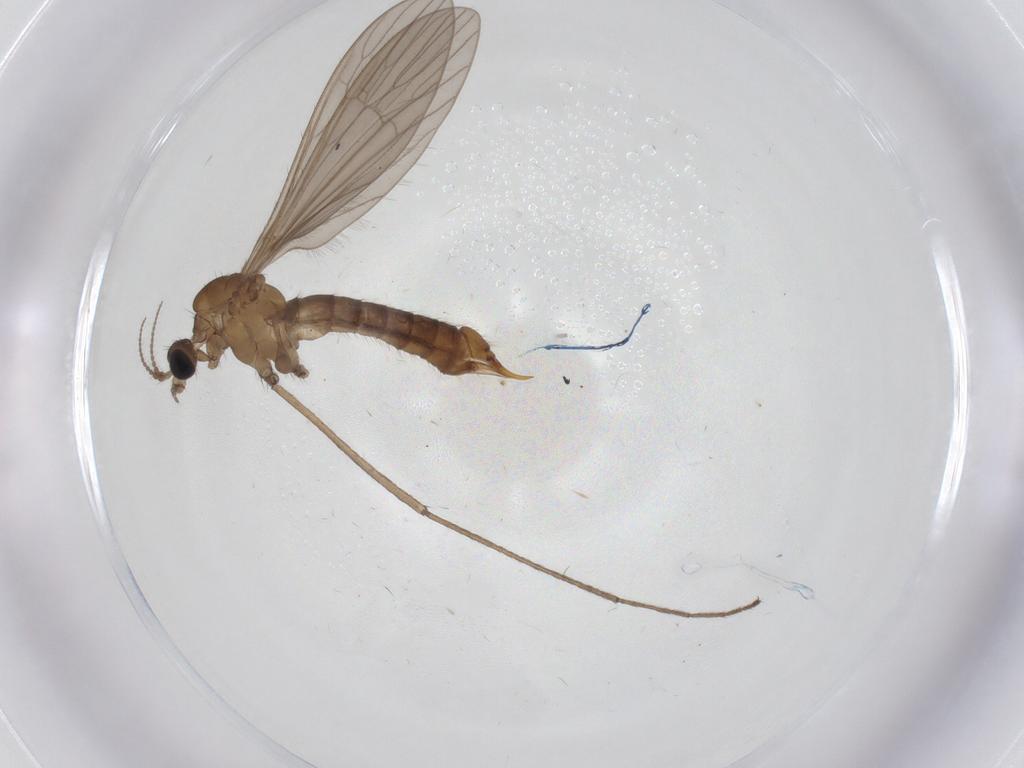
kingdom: Animalia
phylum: Arthropoda
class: Insecta
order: Diptera
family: Limoniidae
